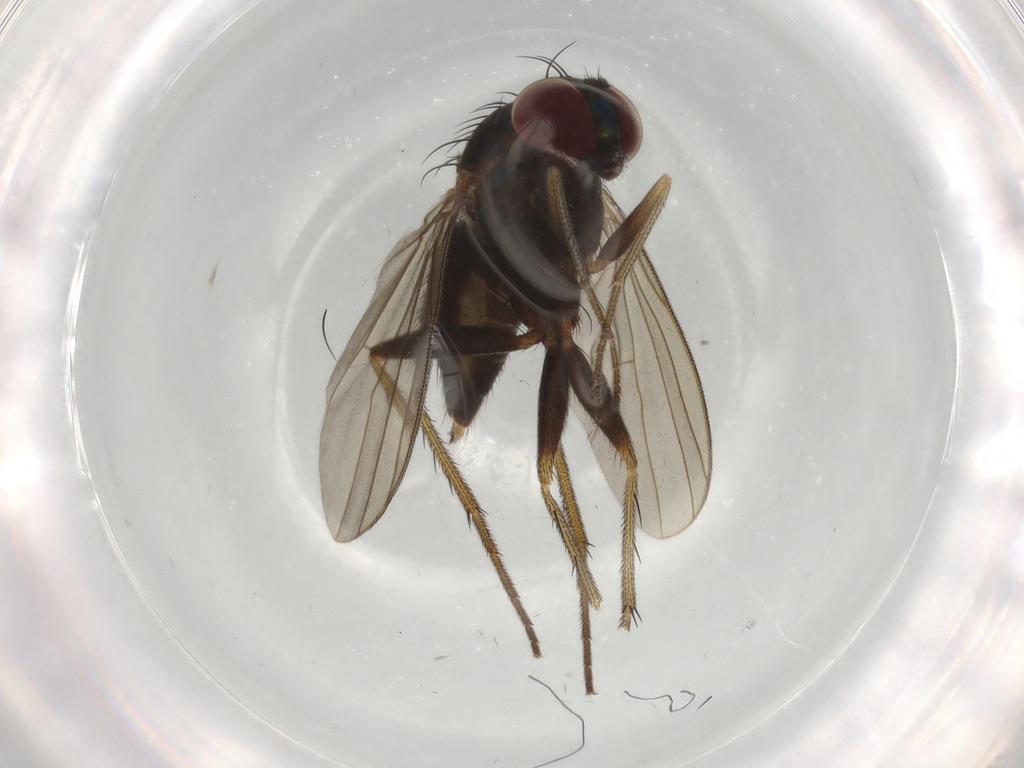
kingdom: Animalia
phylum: Arthropoda
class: Insecta
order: Diptera
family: Dolichopodidae
